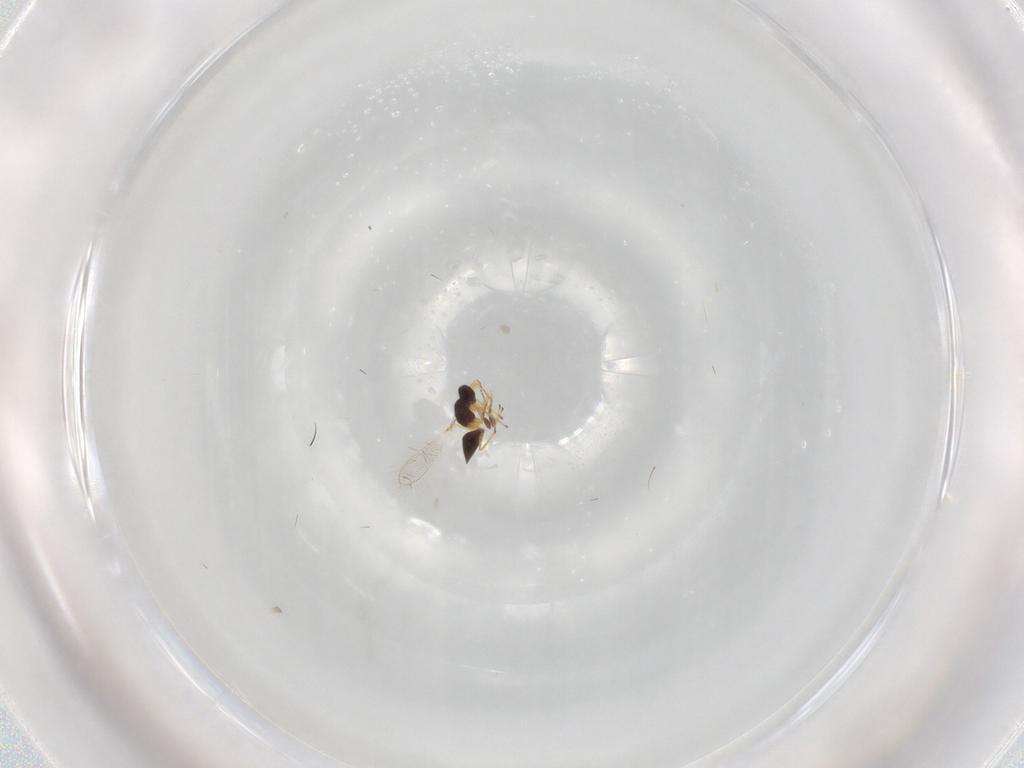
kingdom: Animalia
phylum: Arthropoda
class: Insecta
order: Hymenoptera
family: Mymaridae
